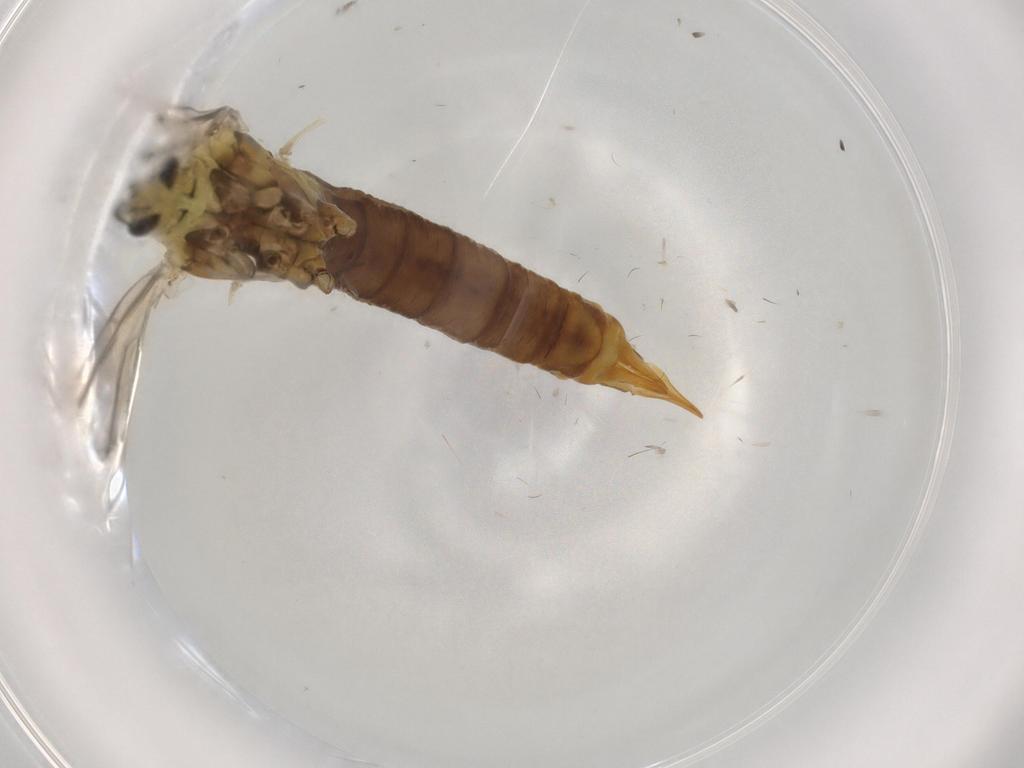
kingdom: Animalia
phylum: Arthropoda
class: Insecta
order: Diptera
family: Limoniidae
